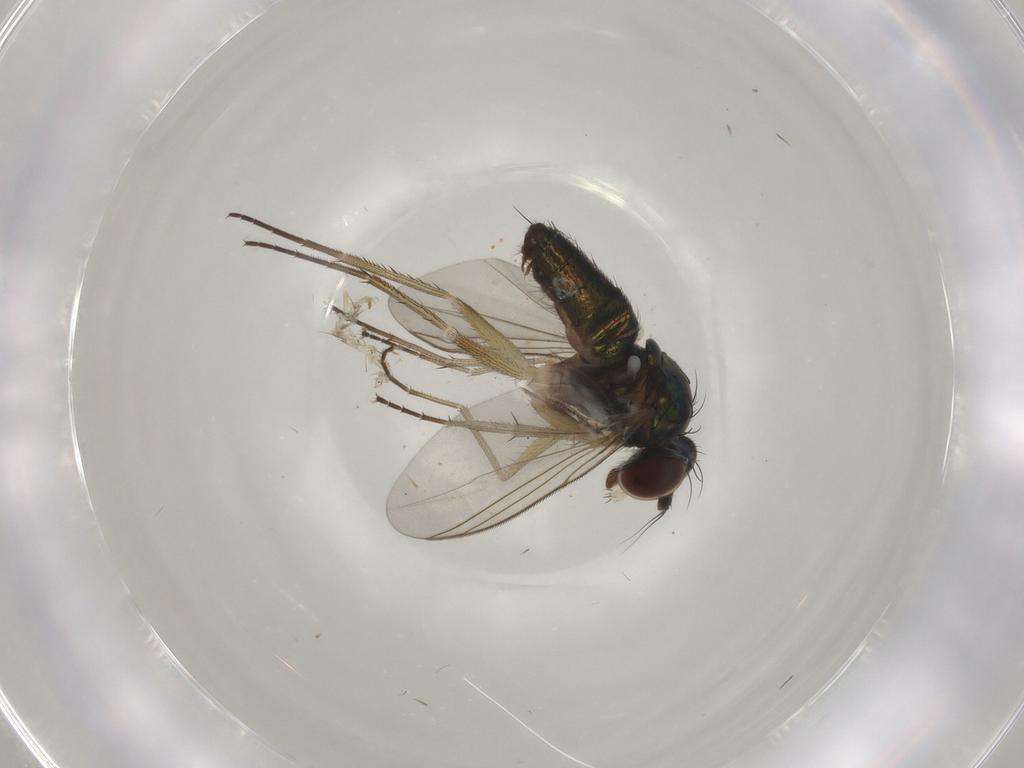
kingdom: Animalia
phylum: Arthropoda
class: Insecta
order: Diptera
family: Dolichopodidae
